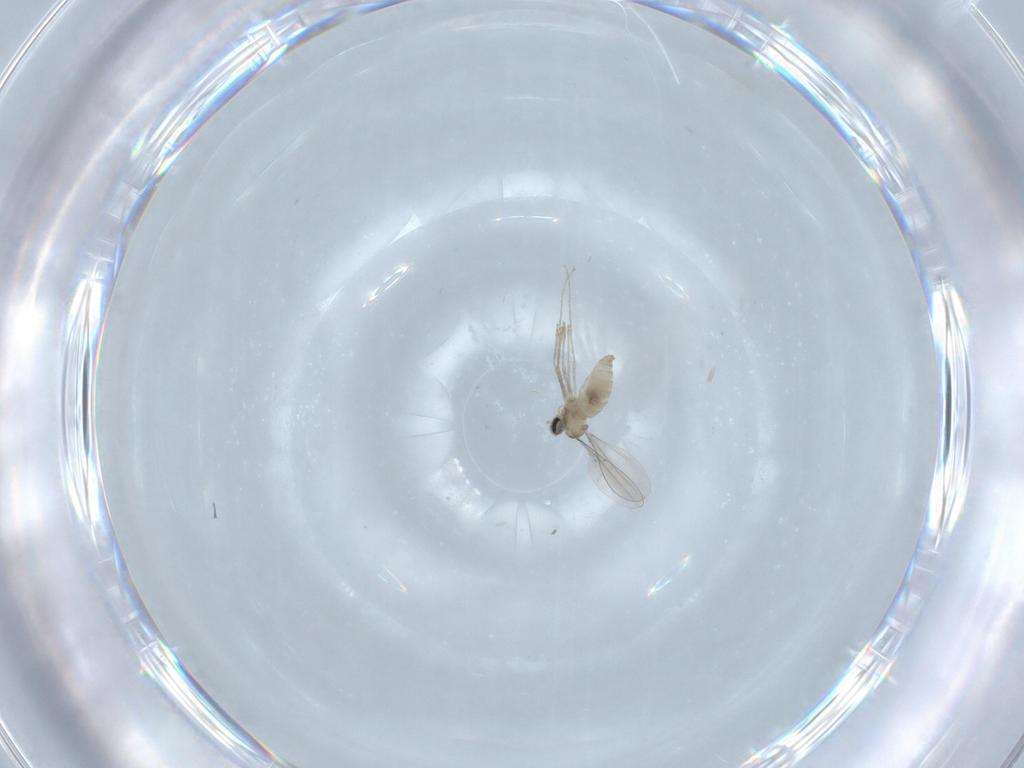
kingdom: Animalia
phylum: Arthropoda
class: Insecta
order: Diptera
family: Cecidomyiidae
